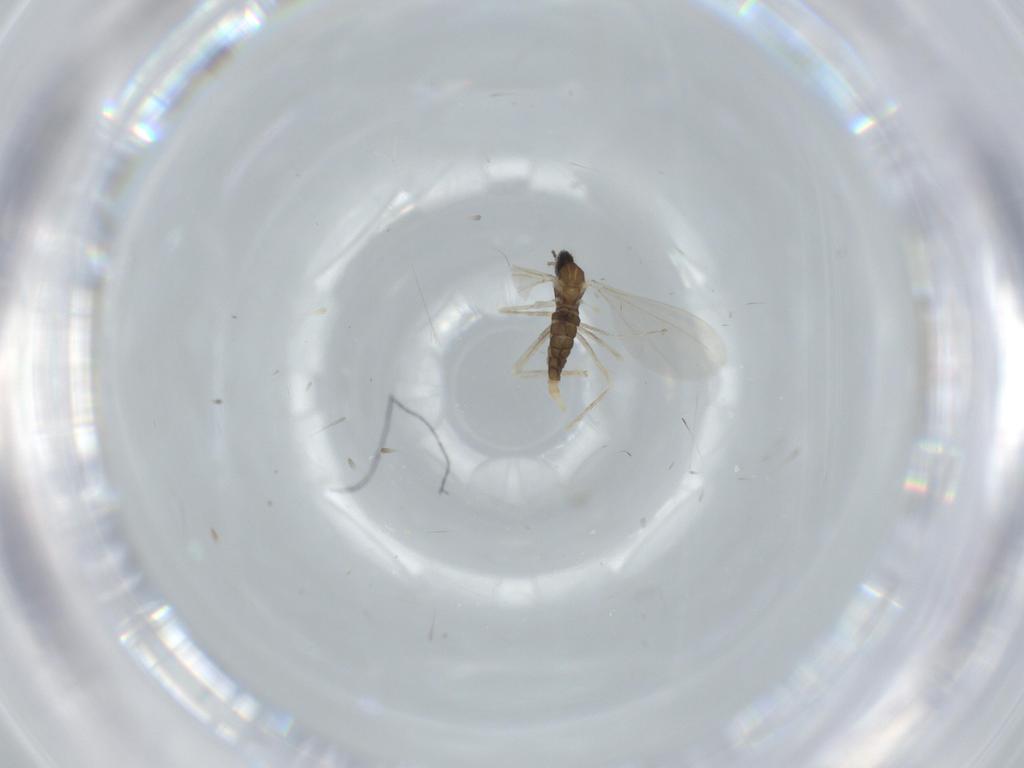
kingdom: Animalia
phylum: Arthropoda
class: Insecta
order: Diptera
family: Cecidomyiidae
